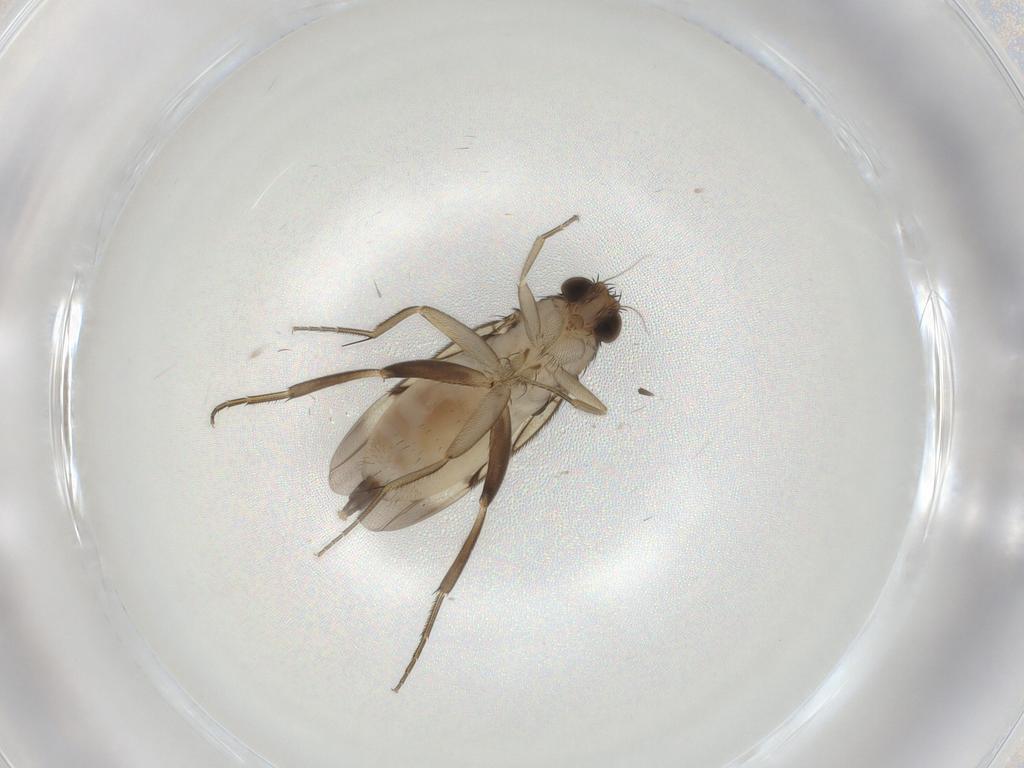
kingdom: Animalia
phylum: Arthropoda
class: Insecta
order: Diptera
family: Phoridae
